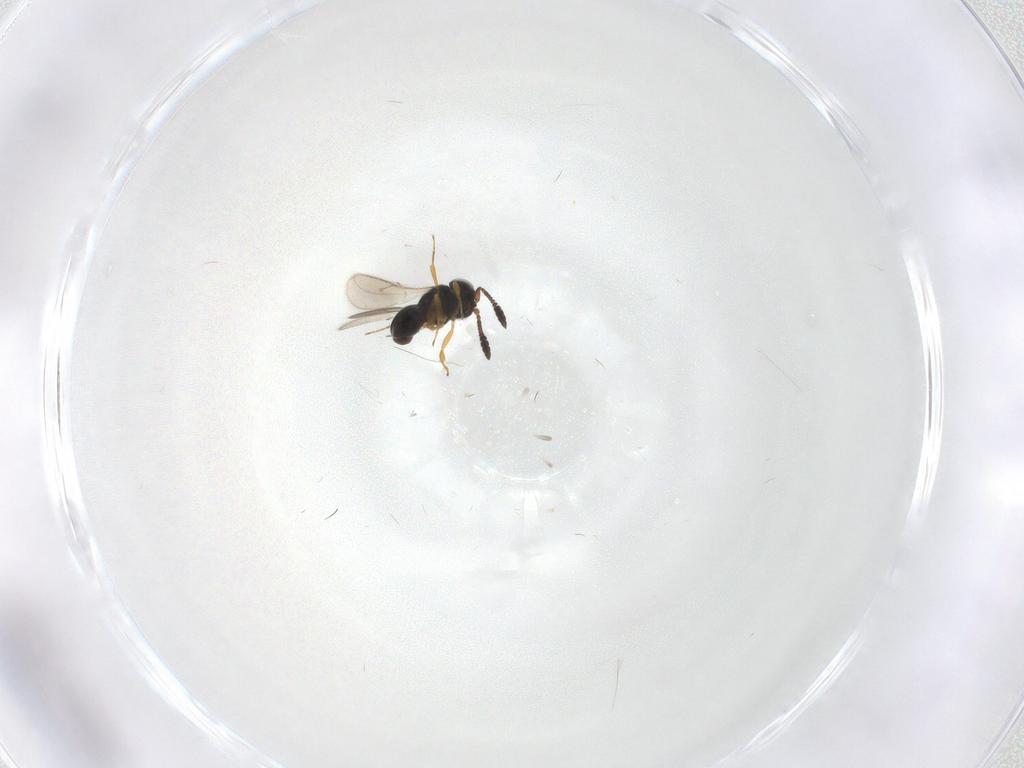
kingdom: Animalia
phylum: Arthropoda
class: Insecta
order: Hymenoptera
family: Scelionidae
